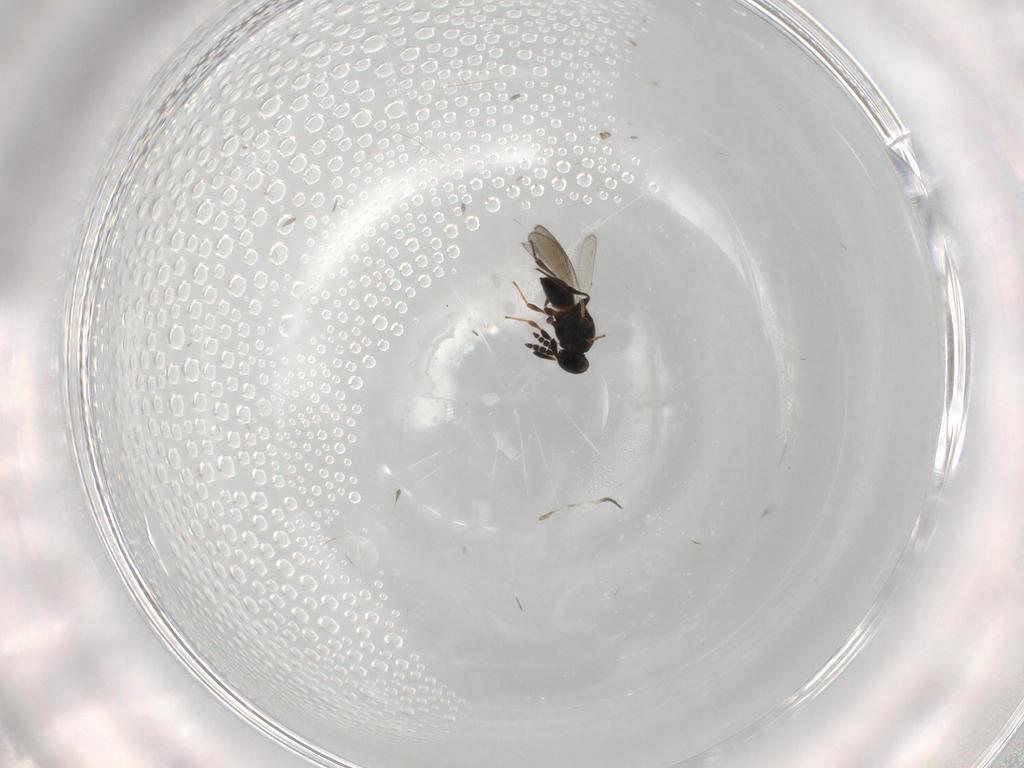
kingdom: Animalia
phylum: Arthropoda
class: Insecta
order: Hymenoptera
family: Platygastridae
